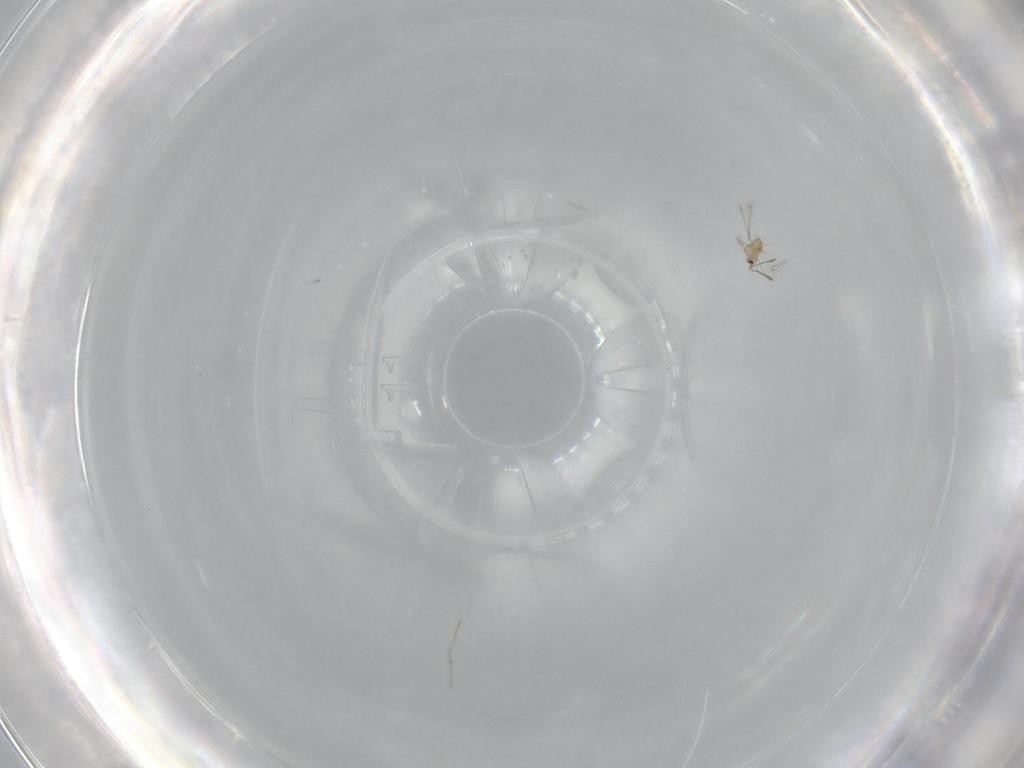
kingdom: Animalia
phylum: Arthropoda
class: Insecta
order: Hymenoptera
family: Mymaridae
